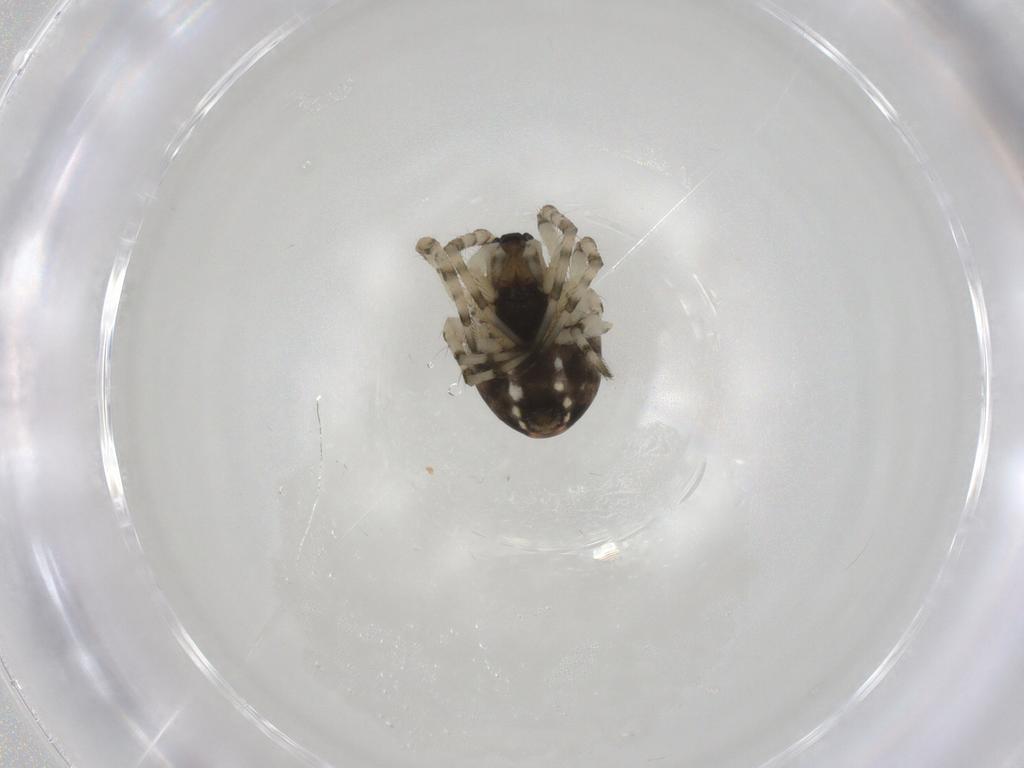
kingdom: Animalia
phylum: Arthropoda
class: Arachnida
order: Araneae
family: Tetragnathidae
